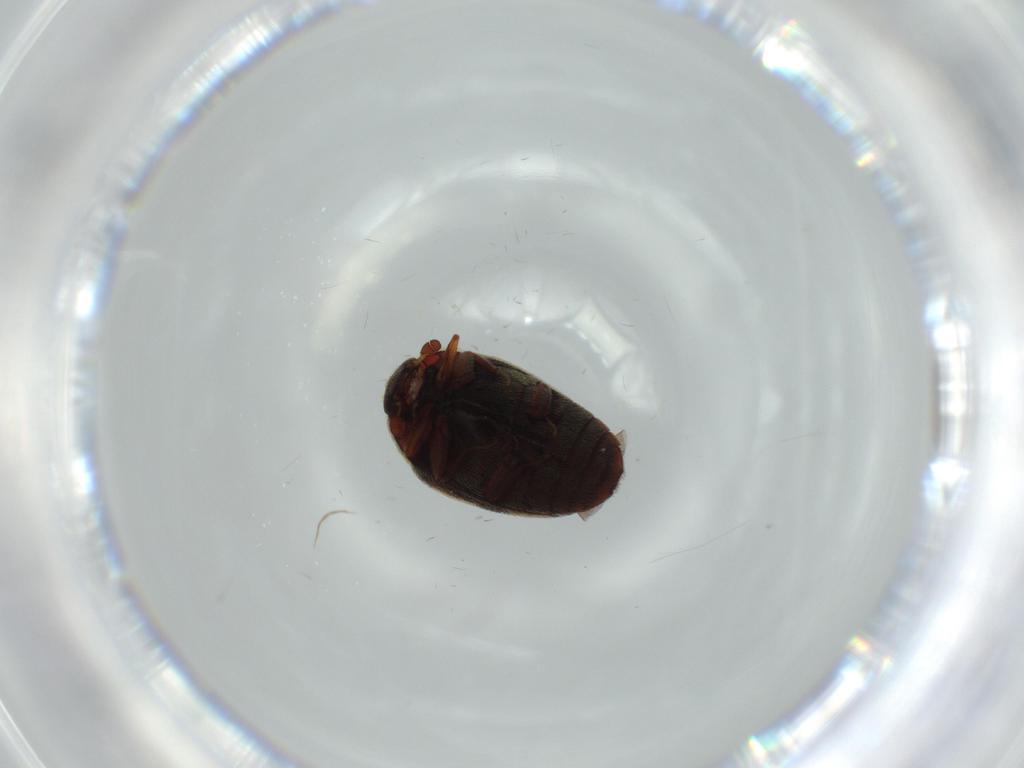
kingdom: Animalia
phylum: Arthropoda
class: Insecta
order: Coleoptera
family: Dermestidae
